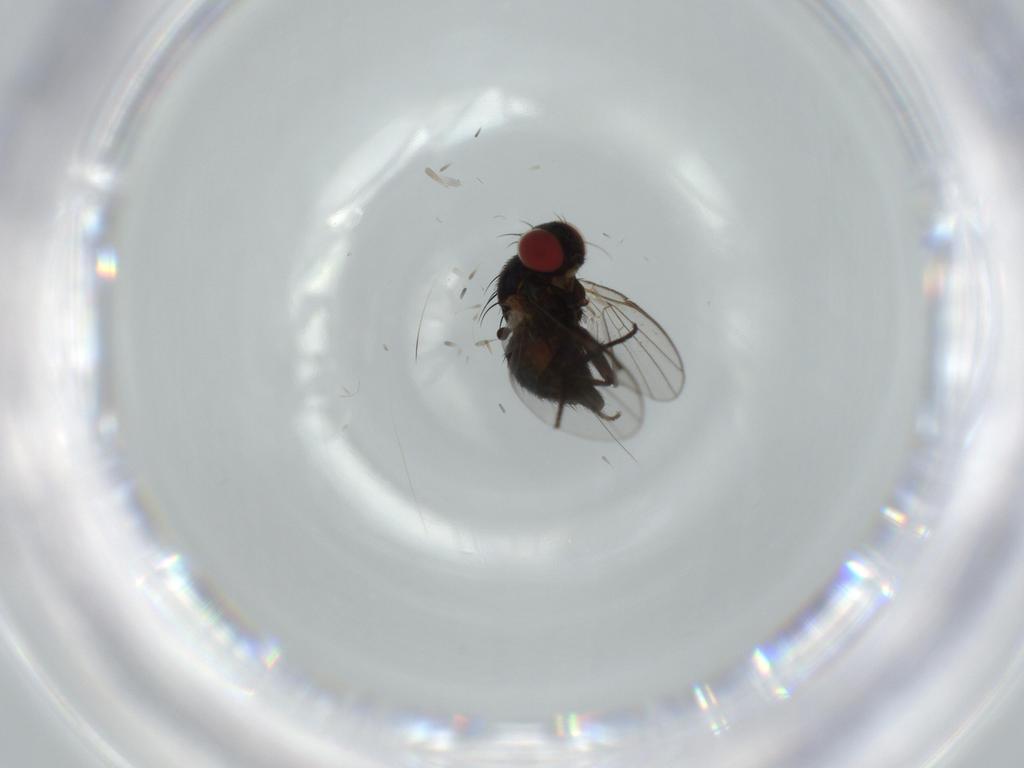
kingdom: Animalia
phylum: Arthropoda
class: Insecta
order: Diptera
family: Agromyzidae
